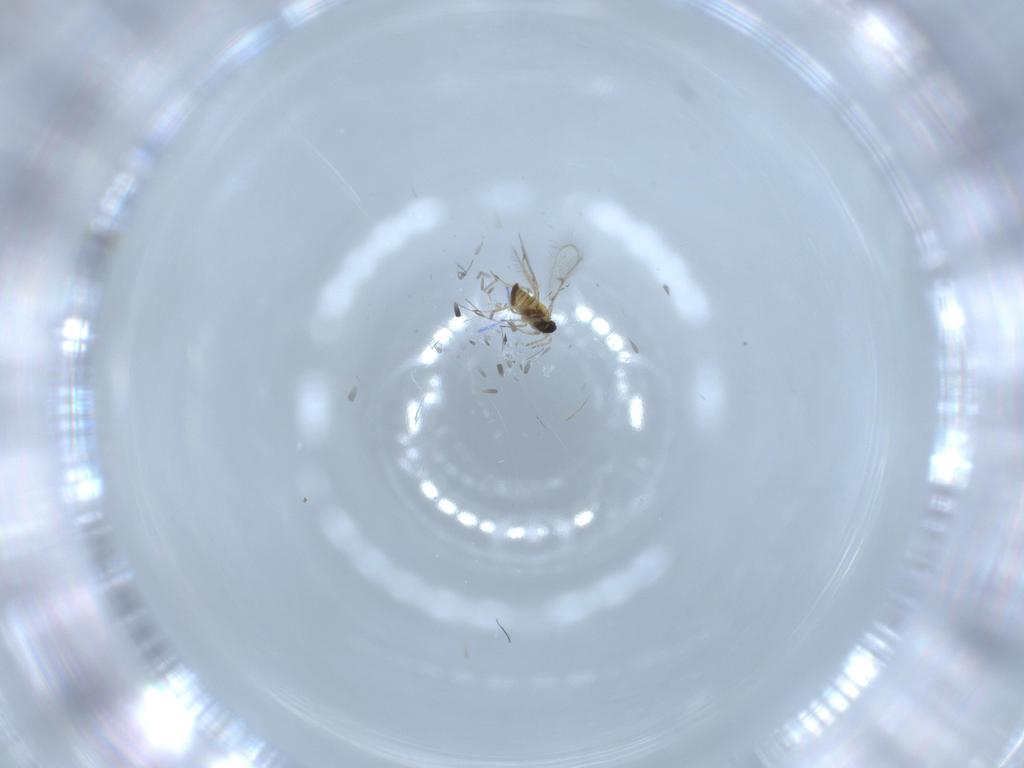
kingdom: Animalia
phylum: Arthropoda
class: Insecta
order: Hymenoptera
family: Trichogrammatidae
